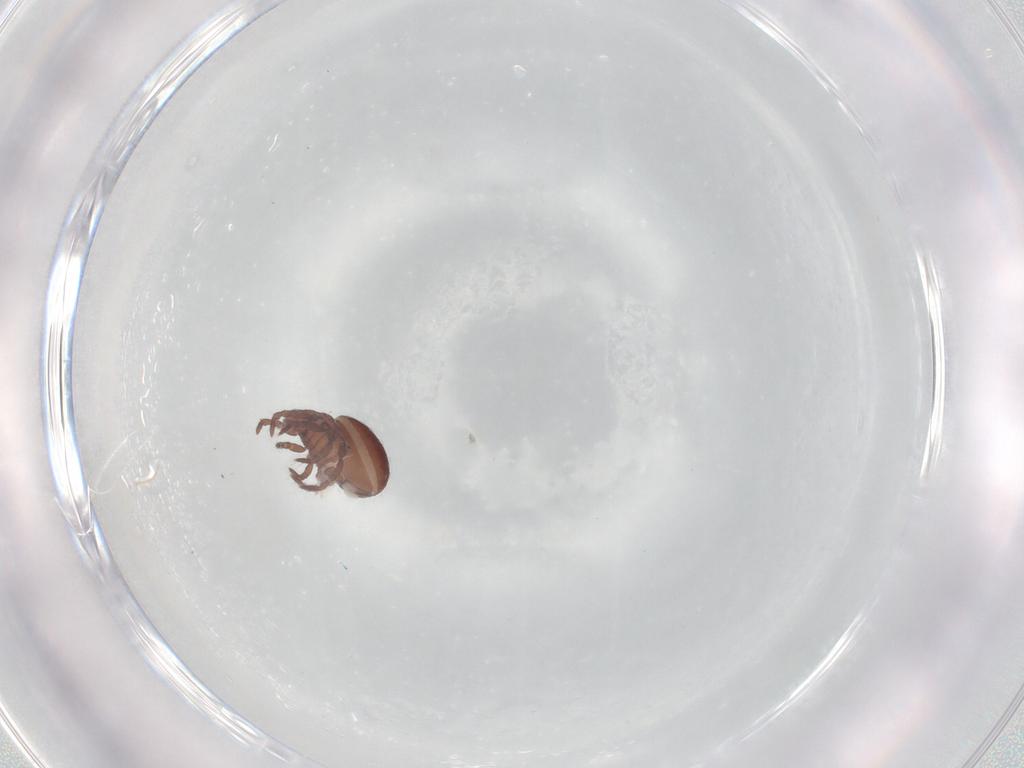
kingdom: Animalia
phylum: Arthropoda
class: Arachnida
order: Sarcoptiformes
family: Hermanniidae
